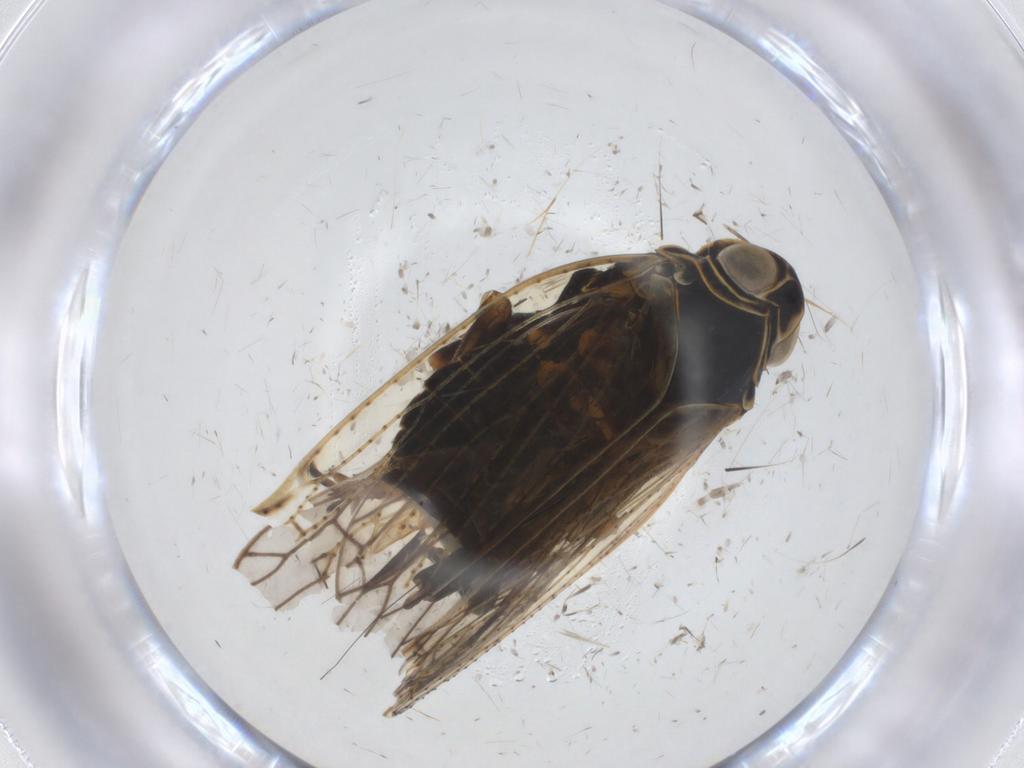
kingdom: Animalia
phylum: Arthropoda
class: Insecta
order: Hemiptera
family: Cixiidae
